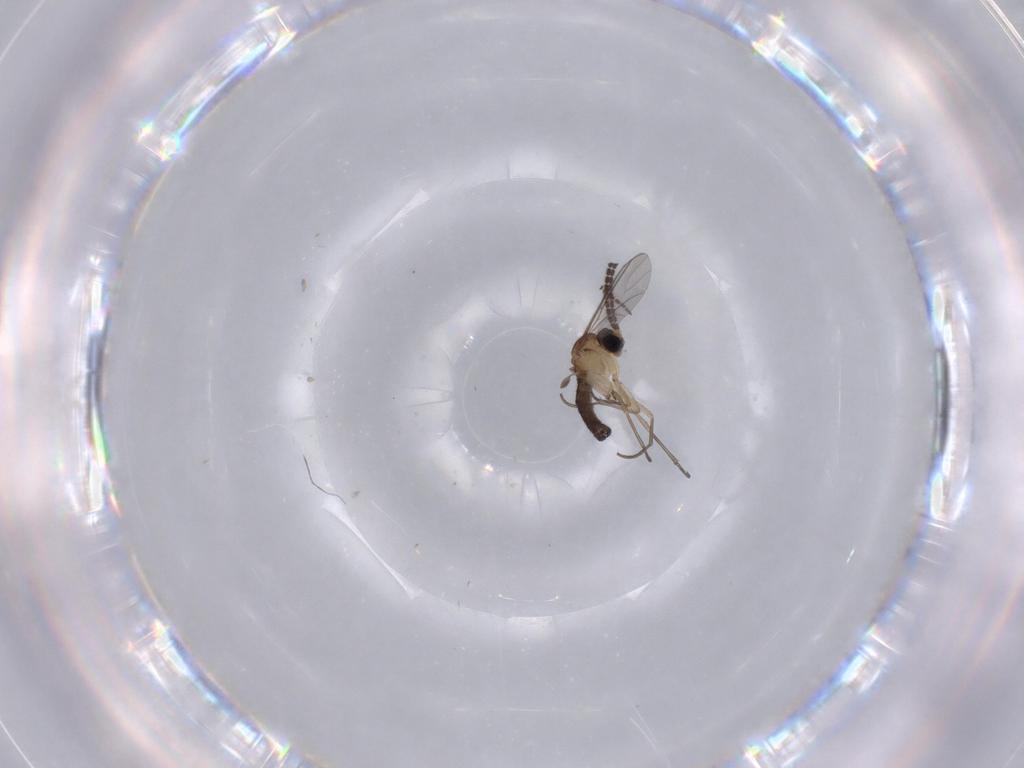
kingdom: Animalia
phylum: Arthropoda
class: Insecta
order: Diptera
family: Sciaridae
